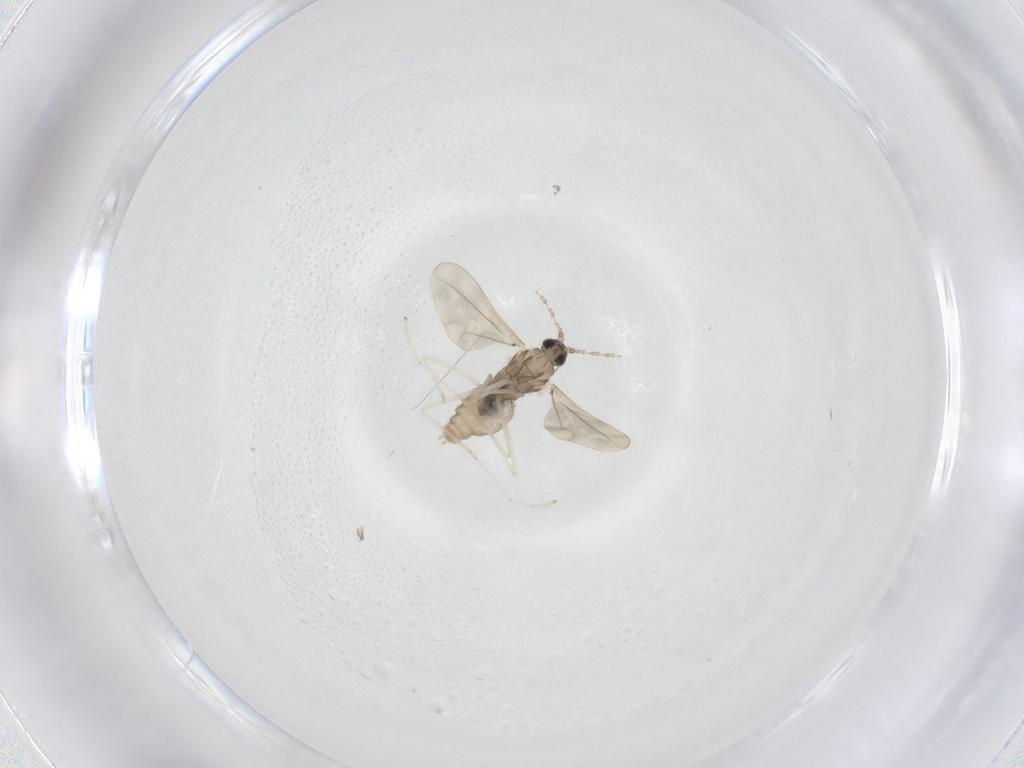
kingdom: Animalia
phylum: Arthropoda
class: Insecta
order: Diptera
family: Cecidomyiidae
